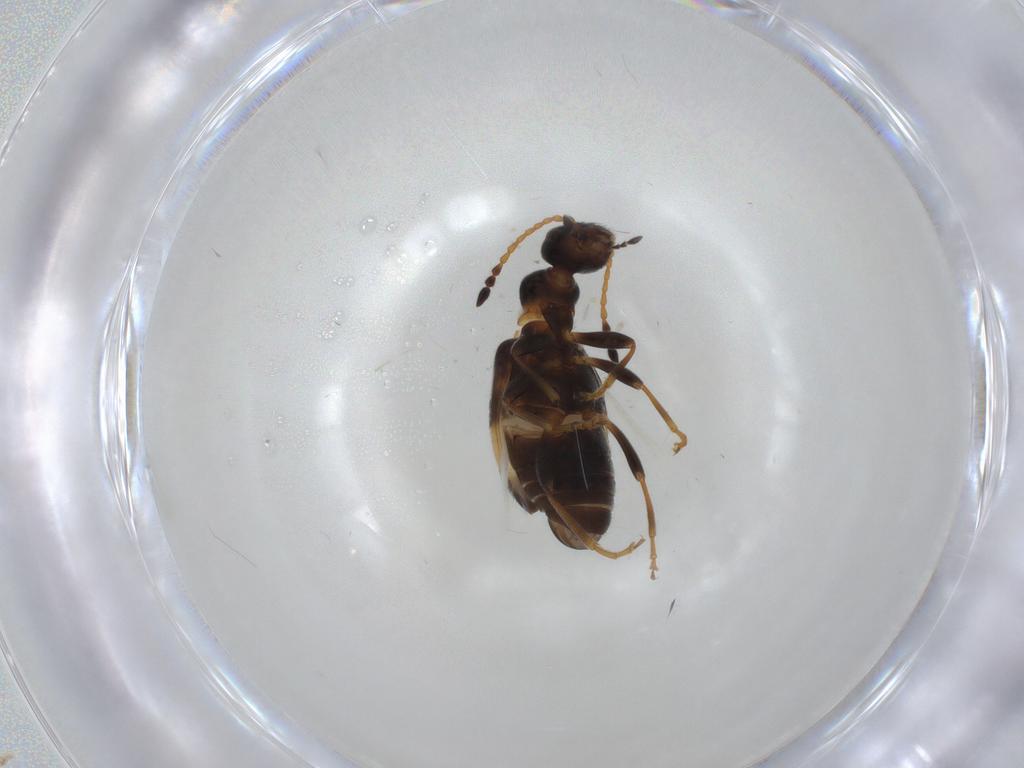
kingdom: Animalia
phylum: Arthropoda
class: Insecta
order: Coleoptera
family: Anthicidae
